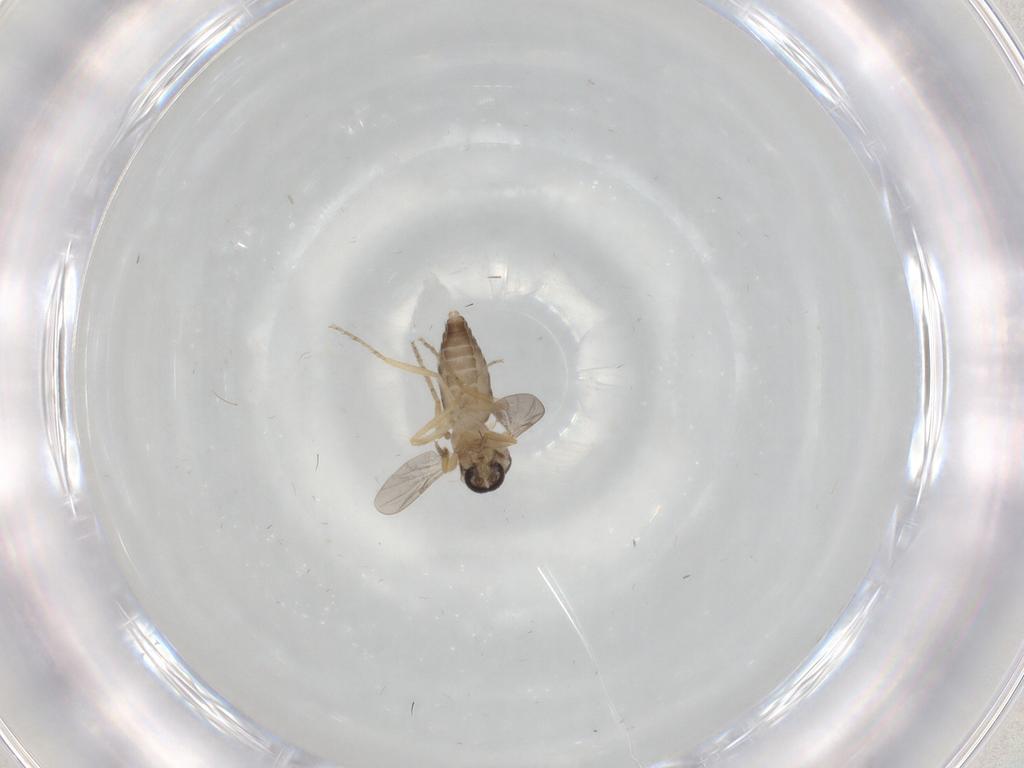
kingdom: Animalia
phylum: Arthropoda
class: Insecta
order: Diptera
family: Ceratopogonidae
